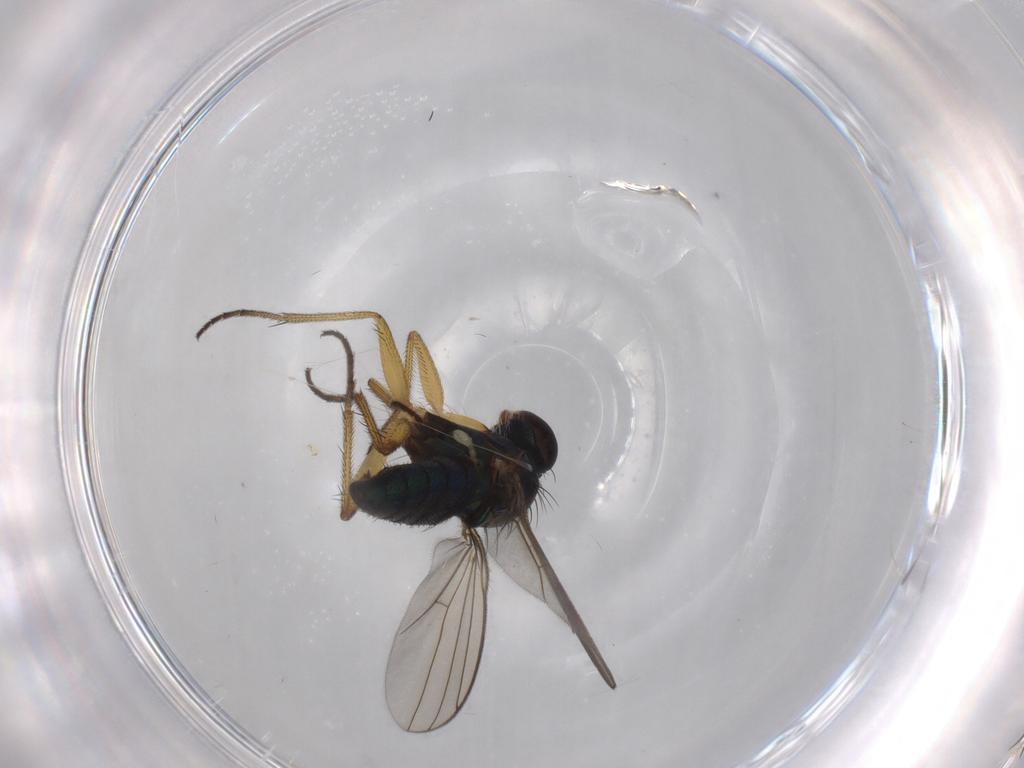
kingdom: Animalia
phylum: Arthropoda
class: Insecta
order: Diptera
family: Dolichopodidae
